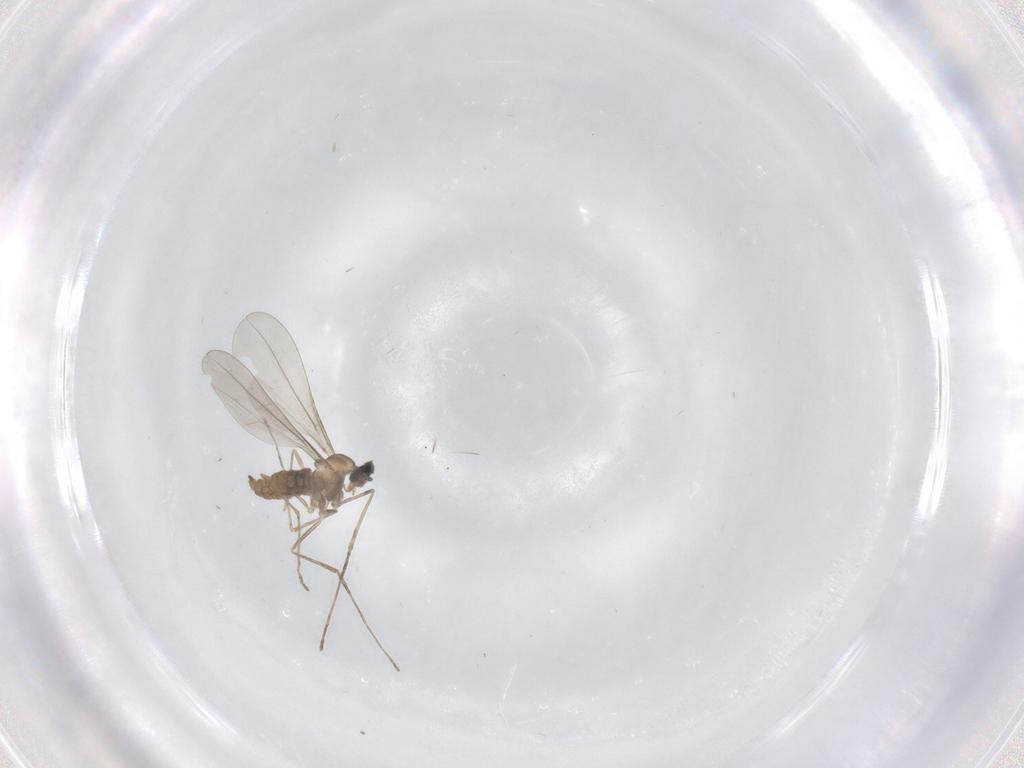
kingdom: Animalia
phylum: Arthropoda
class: Insecta
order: Diptera
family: Ceratopogonidae
